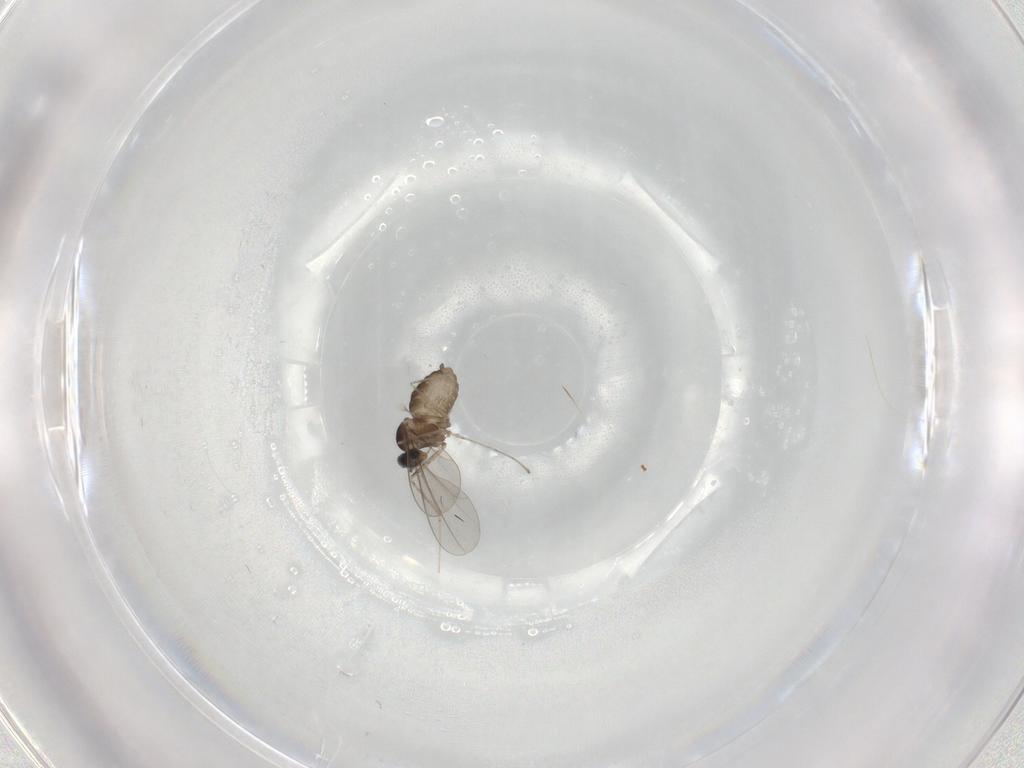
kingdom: Animalia
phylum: Arthropoda
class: Insecta
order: Diptera
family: Cecidomyiidae
